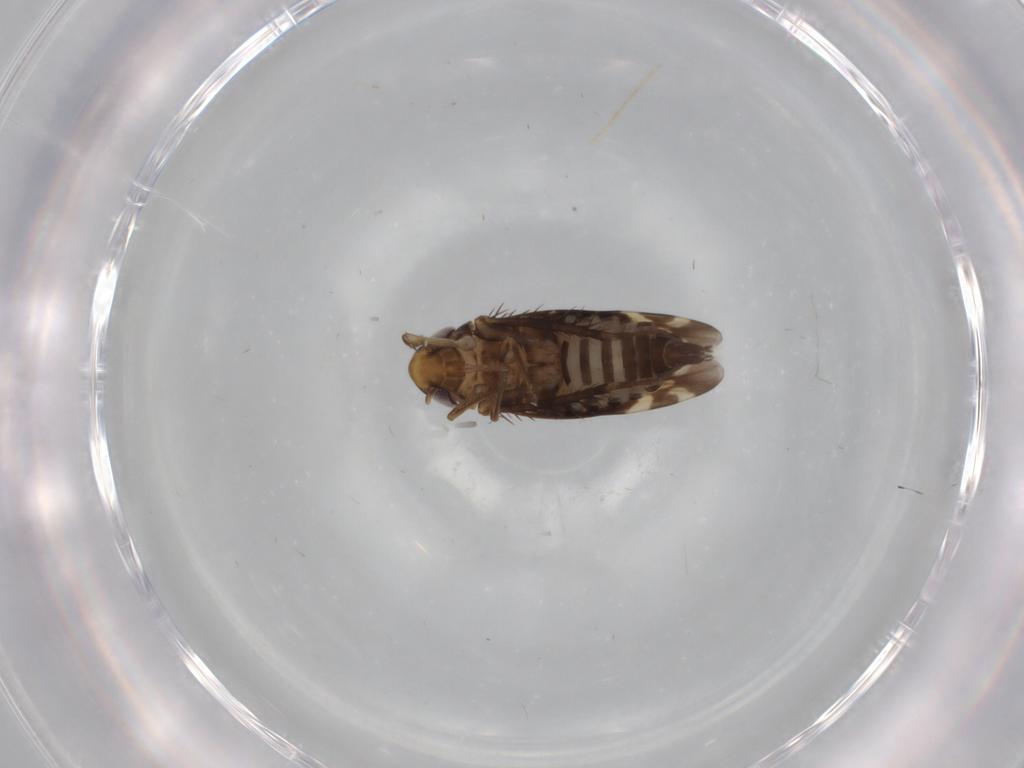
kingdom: Animalia
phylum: Arthropoda
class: Insecta
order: Hemiptera
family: Cicadellidae
